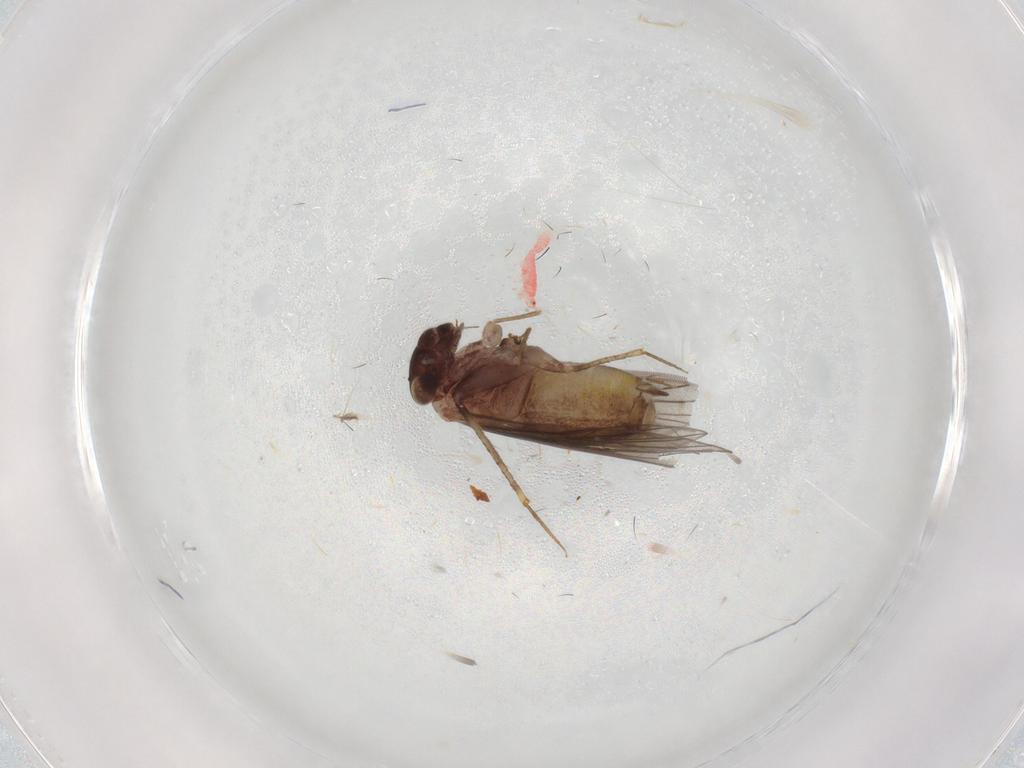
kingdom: Animalia
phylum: Arthropoda
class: Insecta
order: Psocodea
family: Lepidopsocidae
